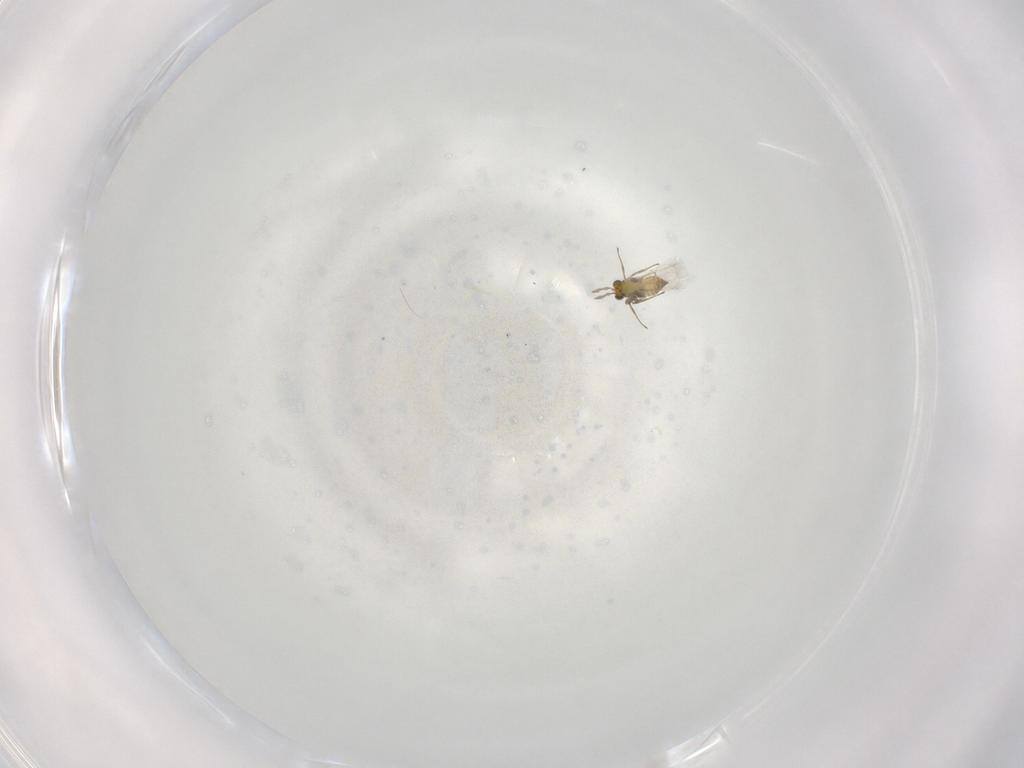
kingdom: Animalia
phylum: Arthropoda
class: Insecta
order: Hymenoptera
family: Trichogrammatidae
